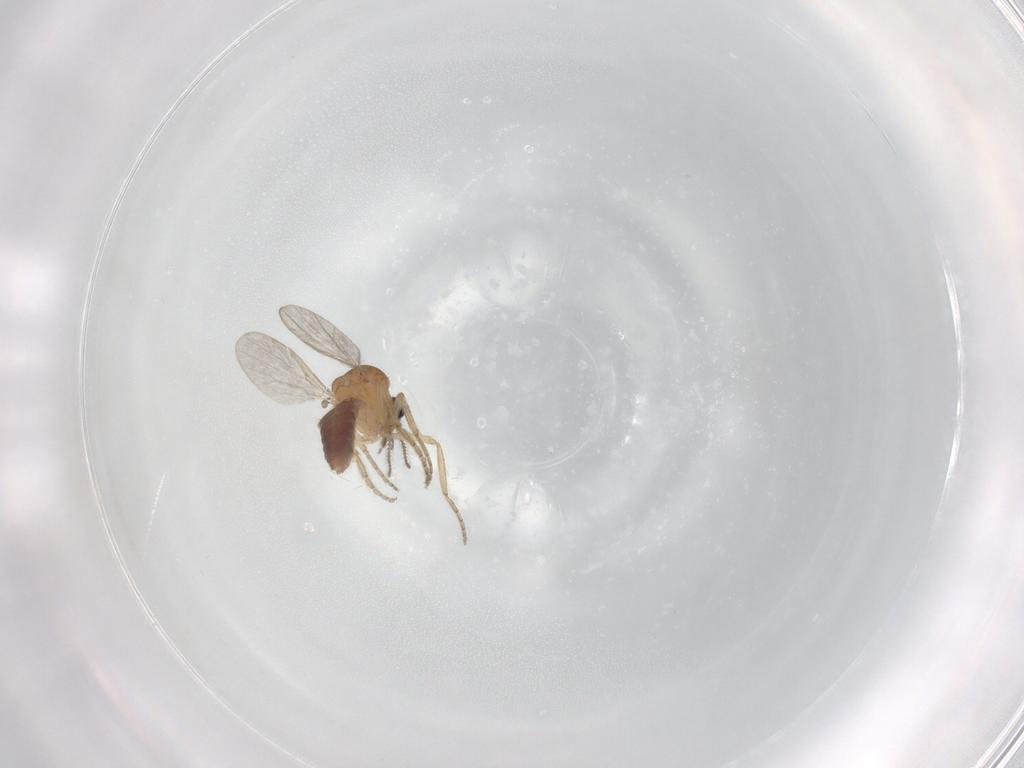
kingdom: Animalia
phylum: Arthropoda
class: Insecta
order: Diptera
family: Ceratopogonidae
